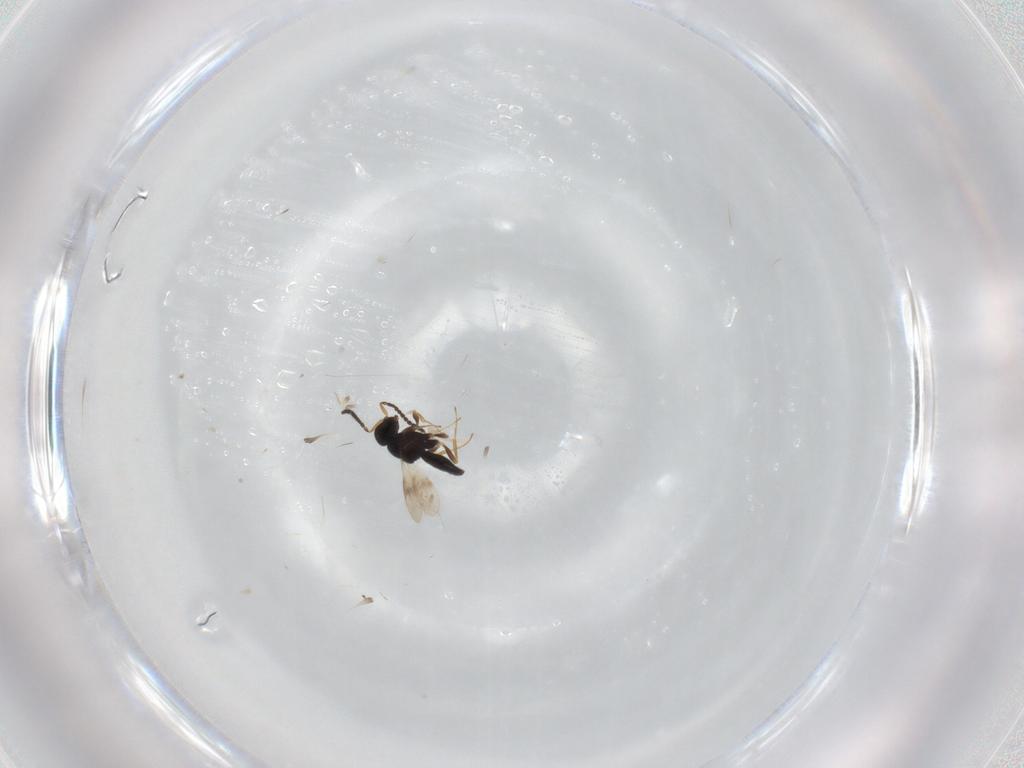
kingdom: Animalia
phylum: Arthropoda
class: Insecta
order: Hymenoptera
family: Scelionidae
